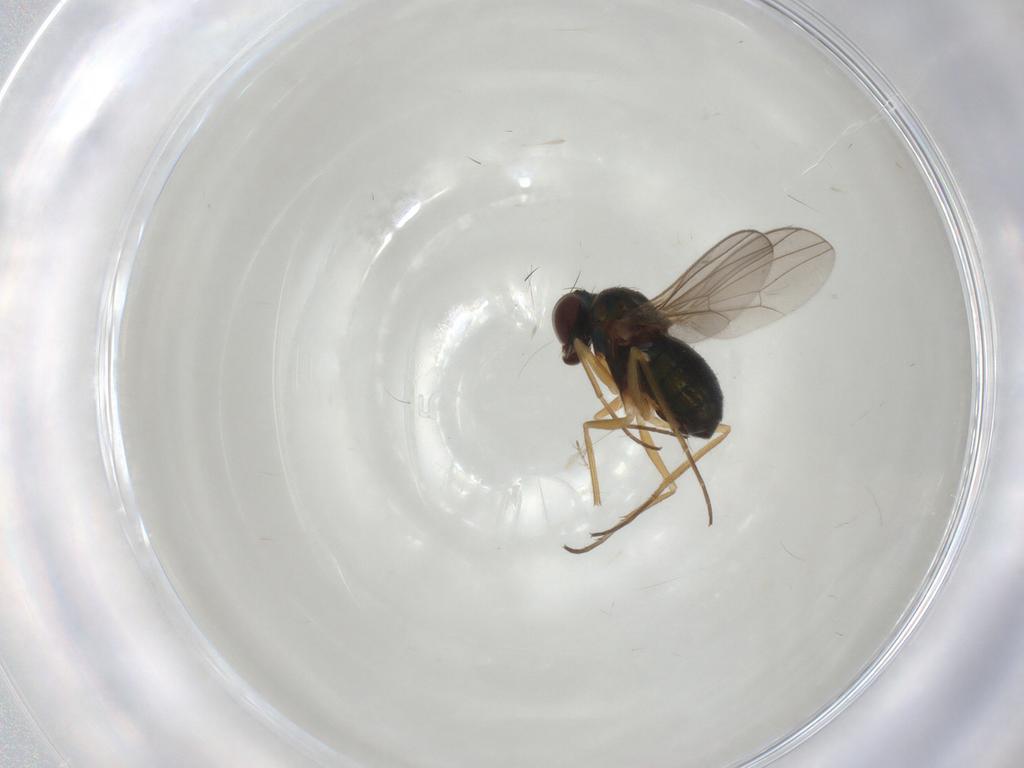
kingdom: Animalia
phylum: Arthropoda
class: Insecta
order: Diptera
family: Dolichopodidae
